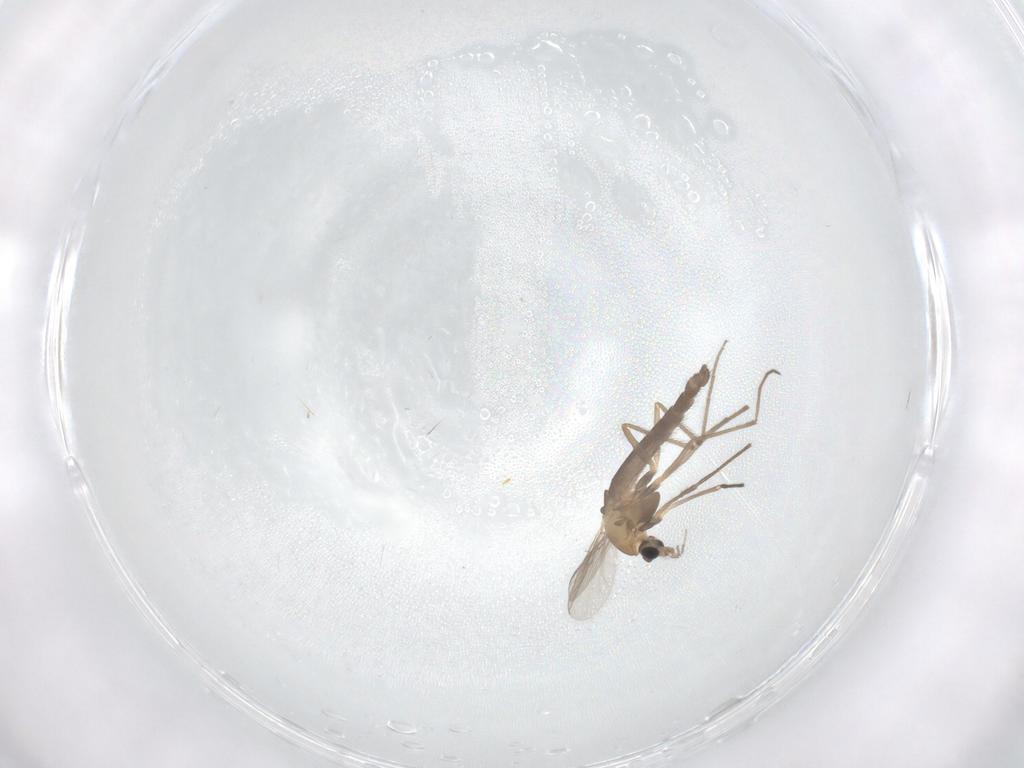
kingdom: Animalia
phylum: Arthropoda
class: Insecta
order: Diptera
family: Chironomidae
